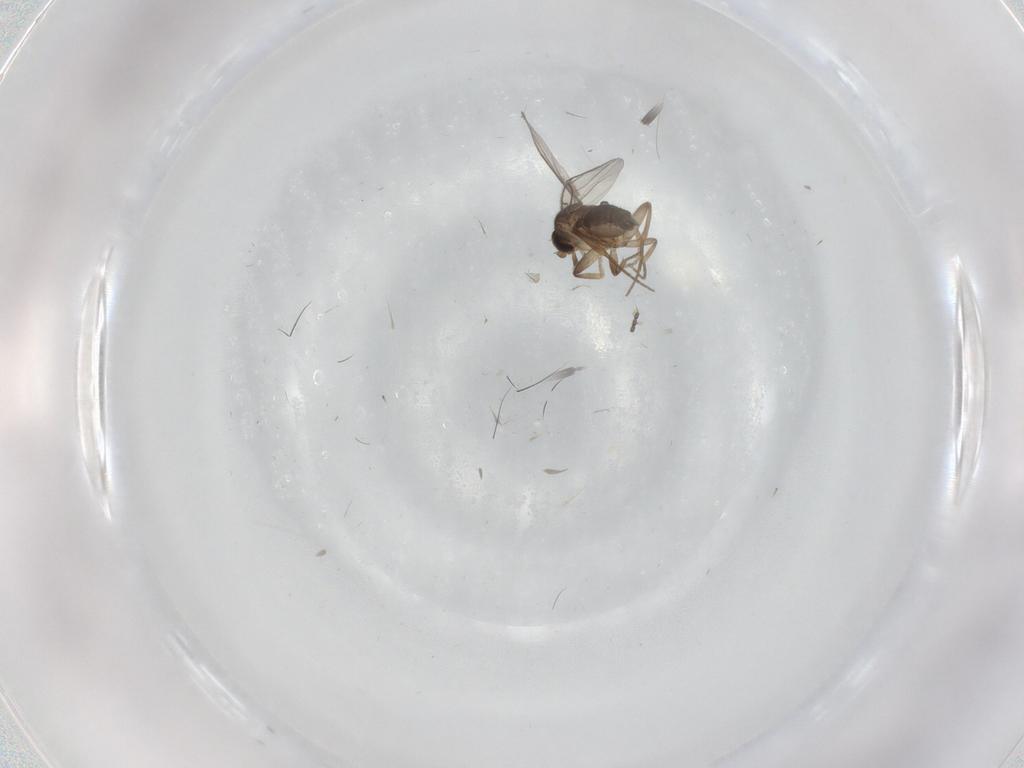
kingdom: Animalia
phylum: Arthropoda
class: Insecta
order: Diptera
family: Phoridae
